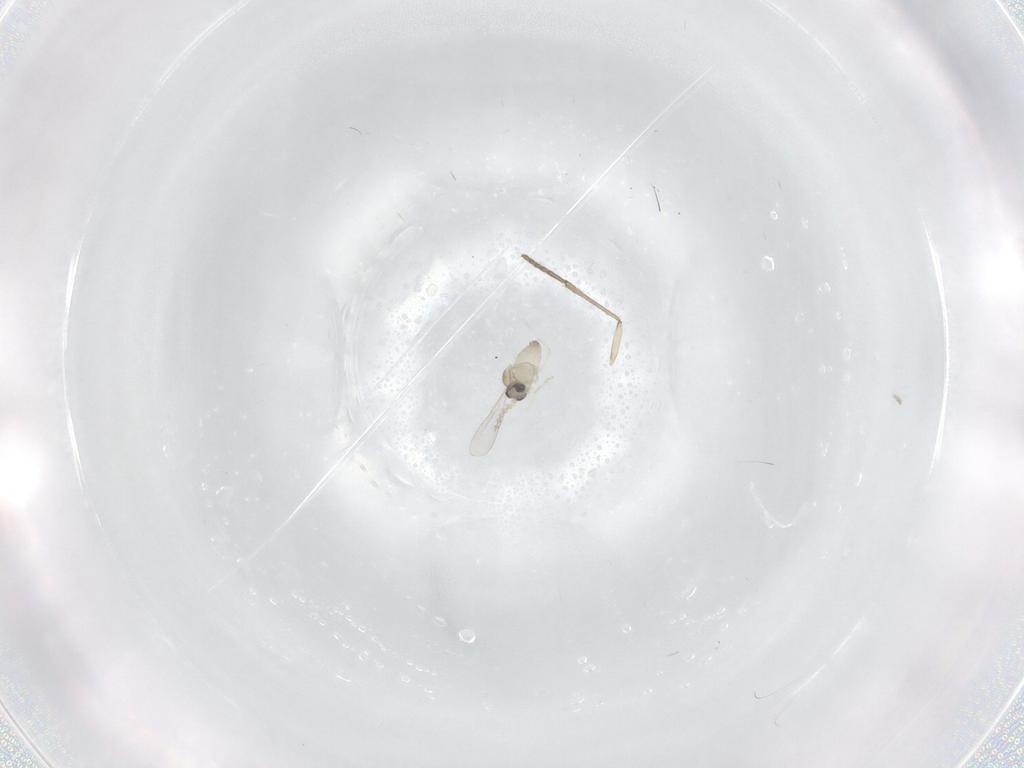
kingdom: Animalia
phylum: Arthropoda
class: Insecta
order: Diptera
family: Cecidomyiidae
